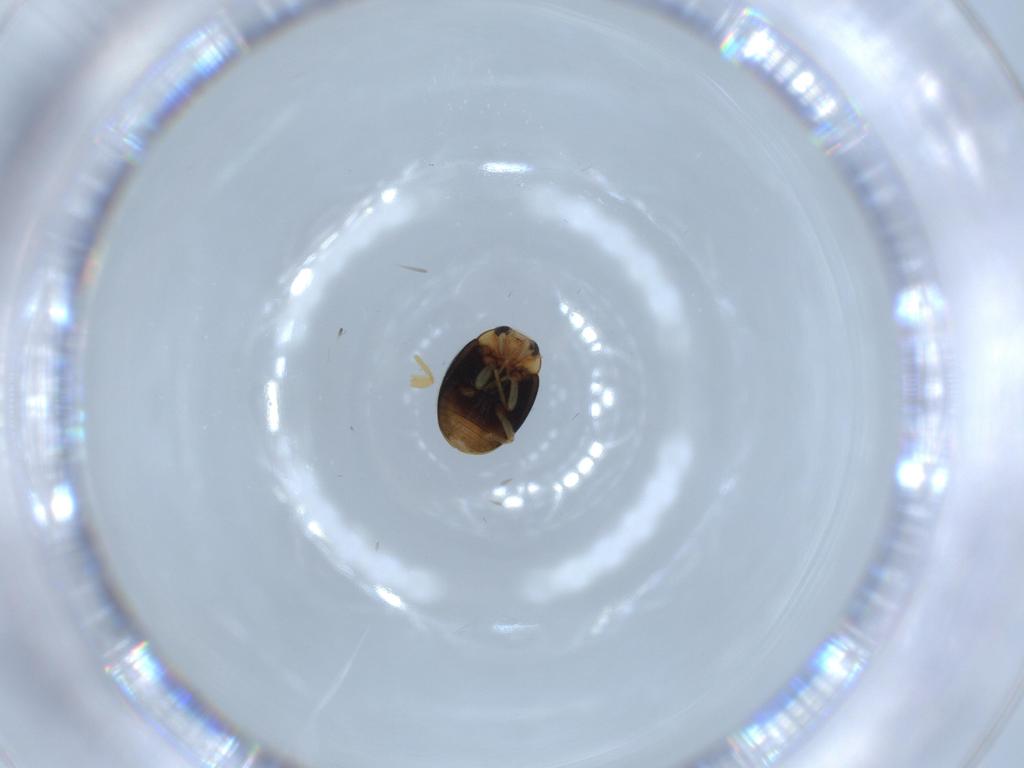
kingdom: Animalia
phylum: Arthropoda
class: Insecta
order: Coleoptera
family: Coccinellidae
